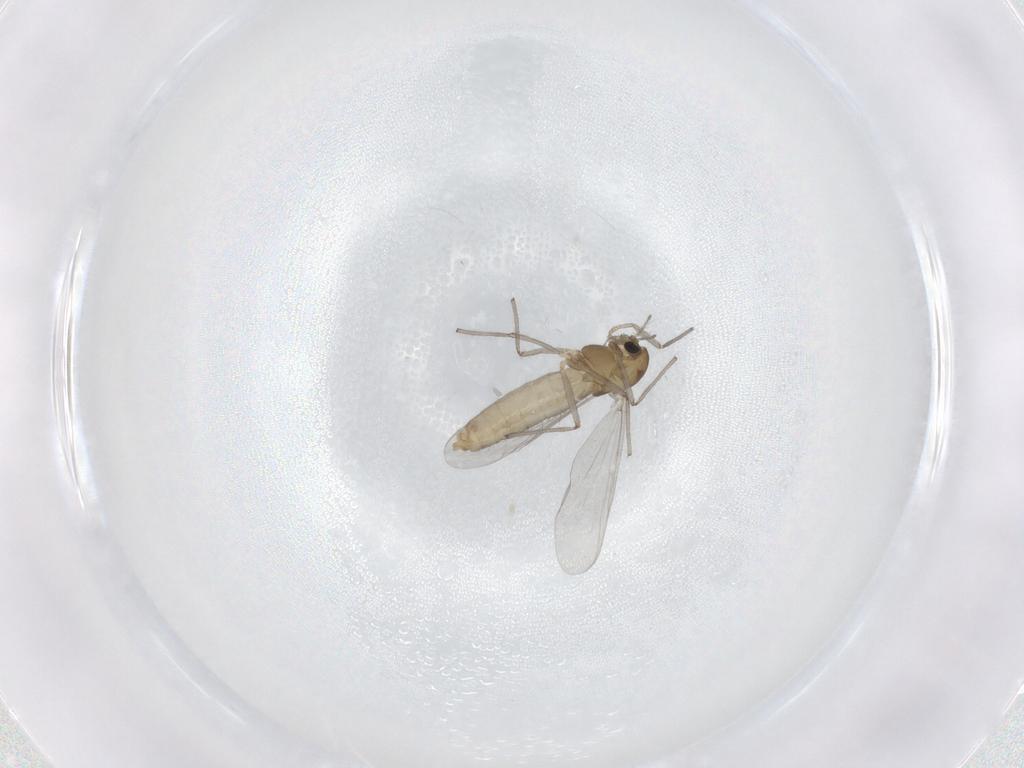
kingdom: Animalia
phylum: Arthropoda
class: Insecta
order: Diptera
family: Chironomidae
